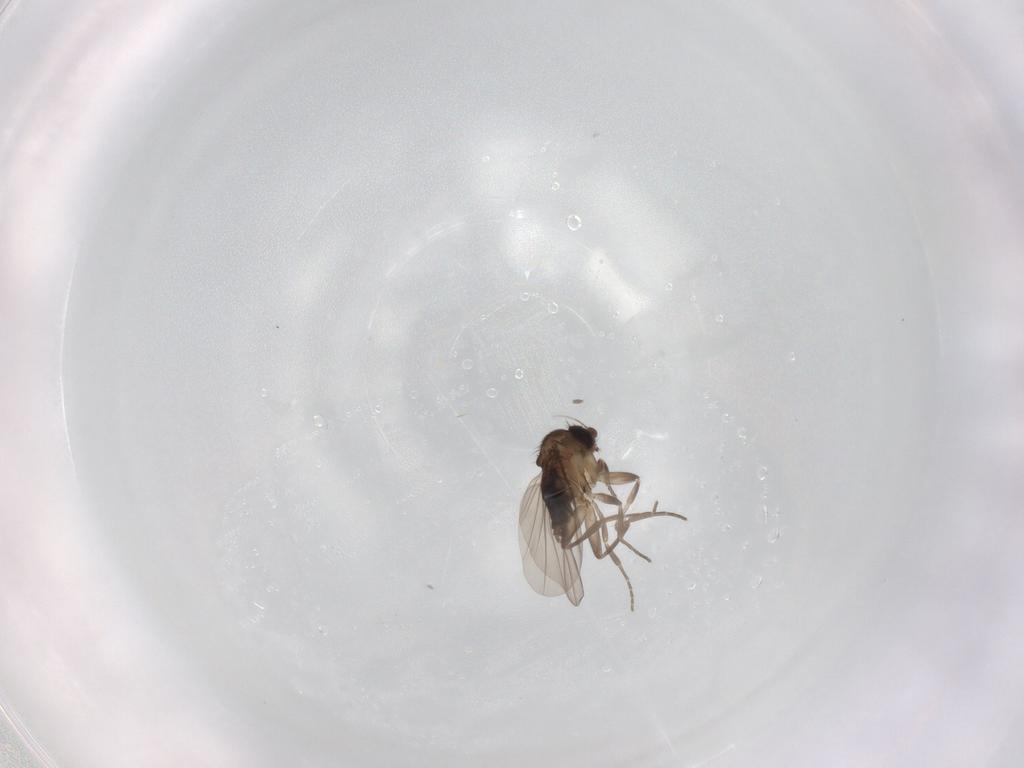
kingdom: Animalia
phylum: Arthropoda
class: Insecta
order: Diptera
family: Phoridae
